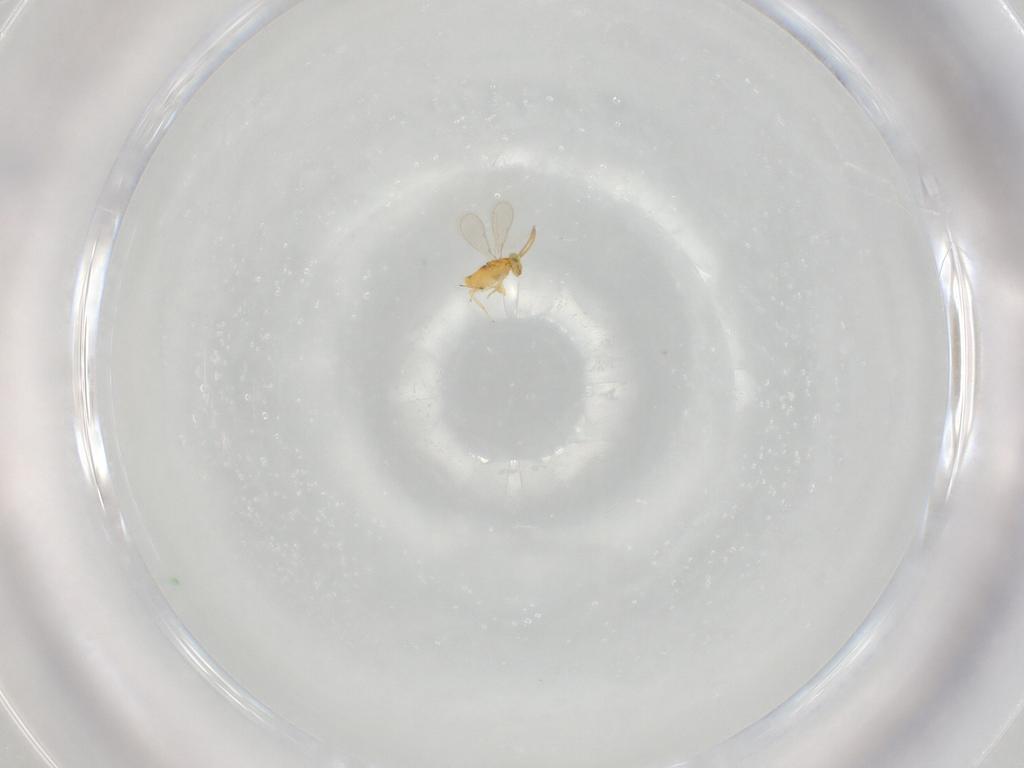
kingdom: Animalia
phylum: Arthropoda
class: Insecta
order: Hymenoptera
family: Aphelinidae
